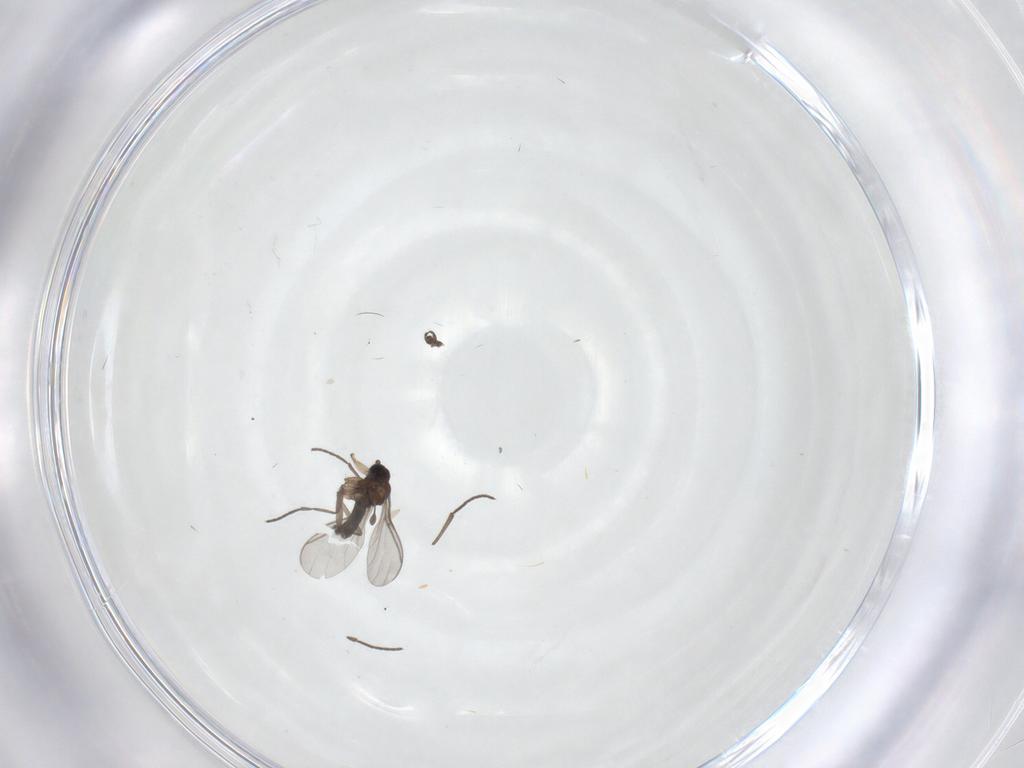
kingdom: Animalia
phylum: Arthropoda
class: Insecta
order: Diptera
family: Sciaridae
